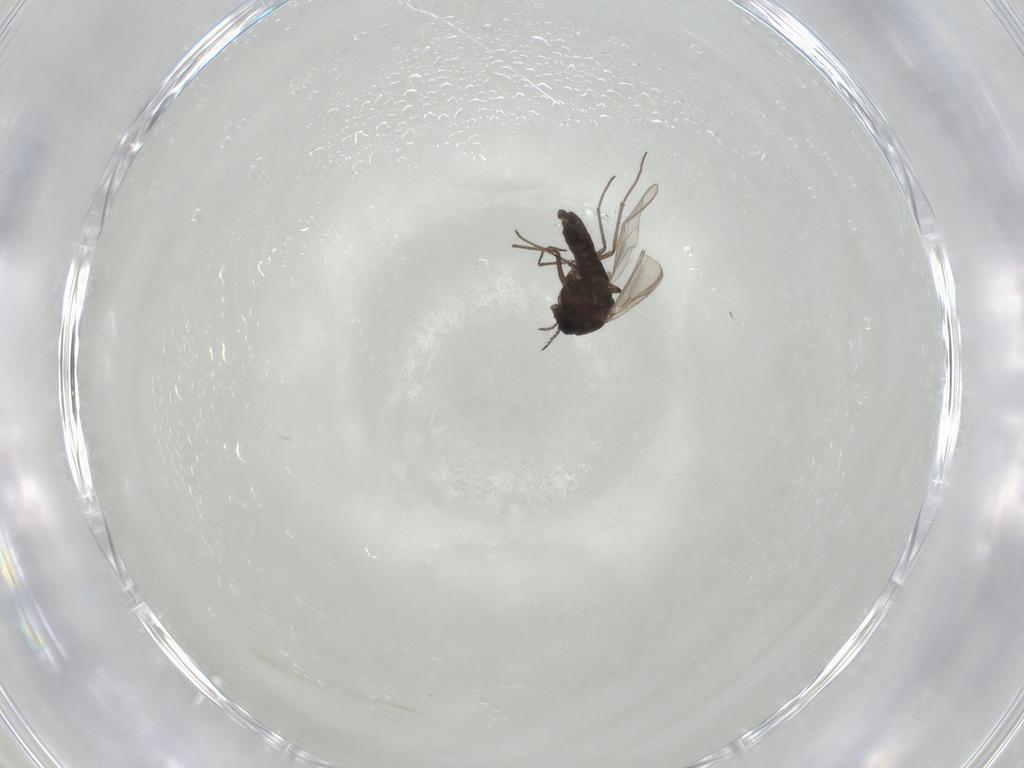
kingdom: Animalia
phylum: Arthropoda
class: Insecta
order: Diptera
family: Chironomidae
